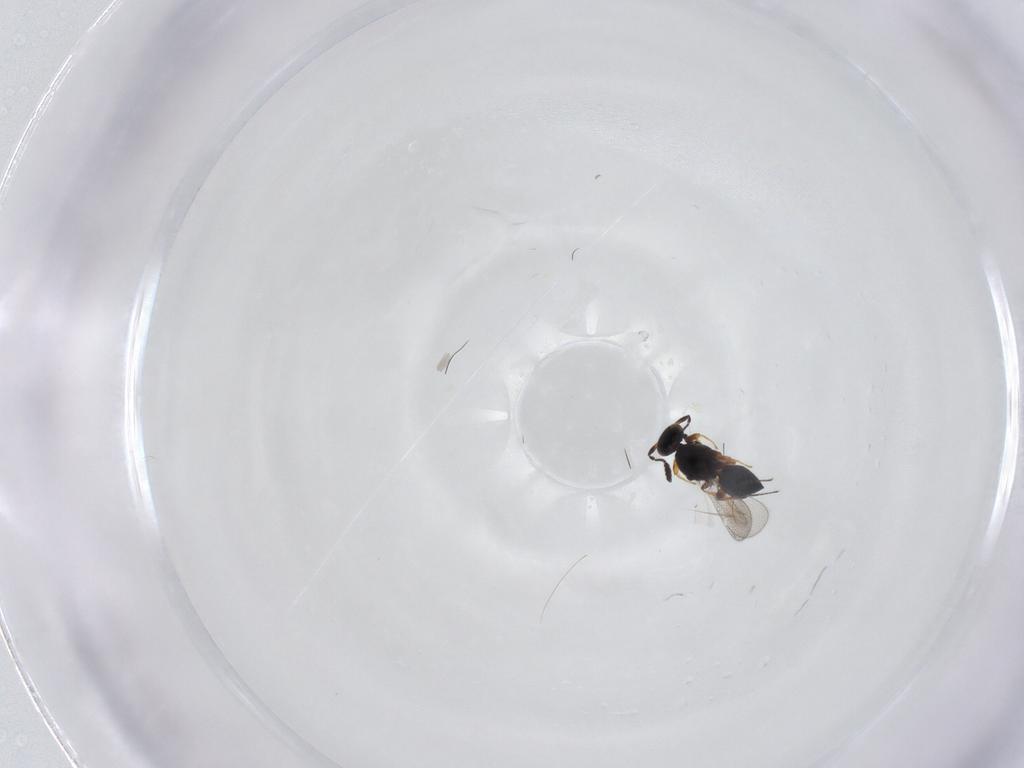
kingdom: Animalia
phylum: Arthropoda
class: Insecta
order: Hymenoptera
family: Platygastridae
